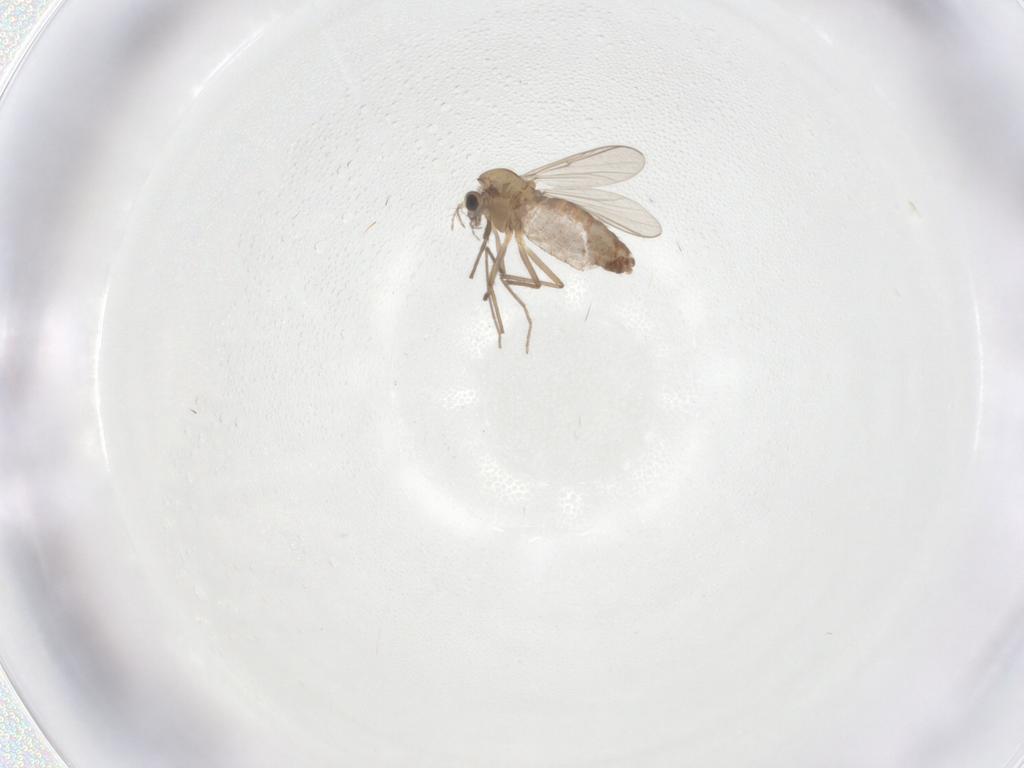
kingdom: Animalia
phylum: Arthropoda
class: Insecta
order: Diptera
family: Chironomidae
